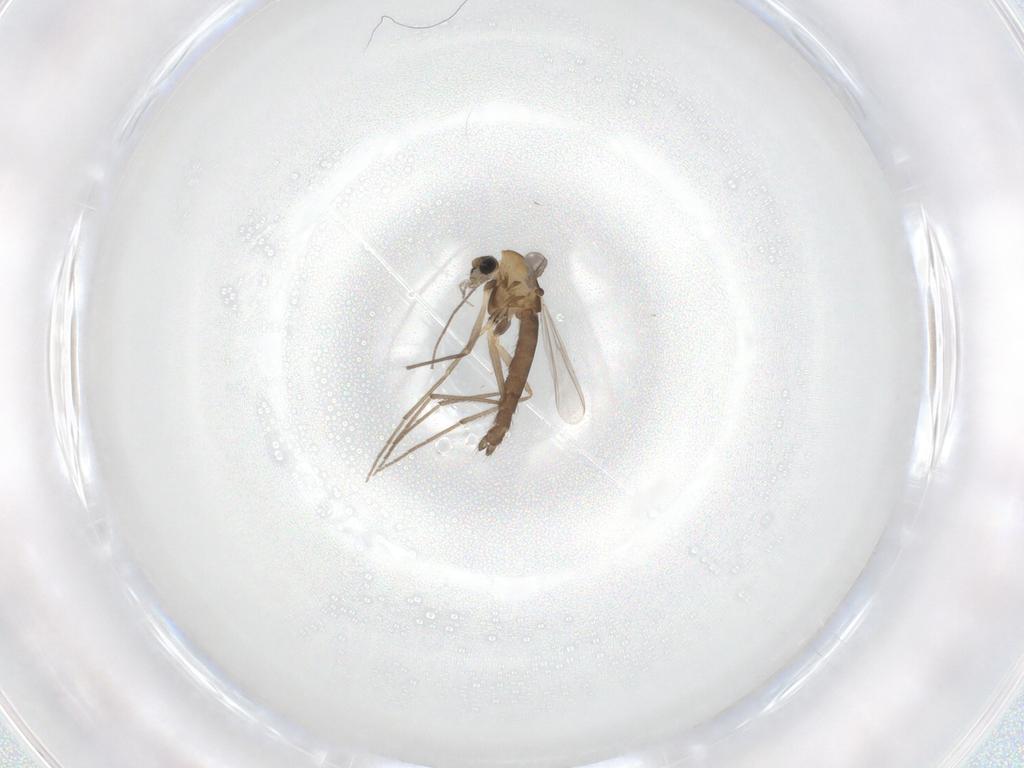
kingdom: Animalia
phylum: Arthropoda
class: Insecta
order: Diptera
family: Chironomidae
